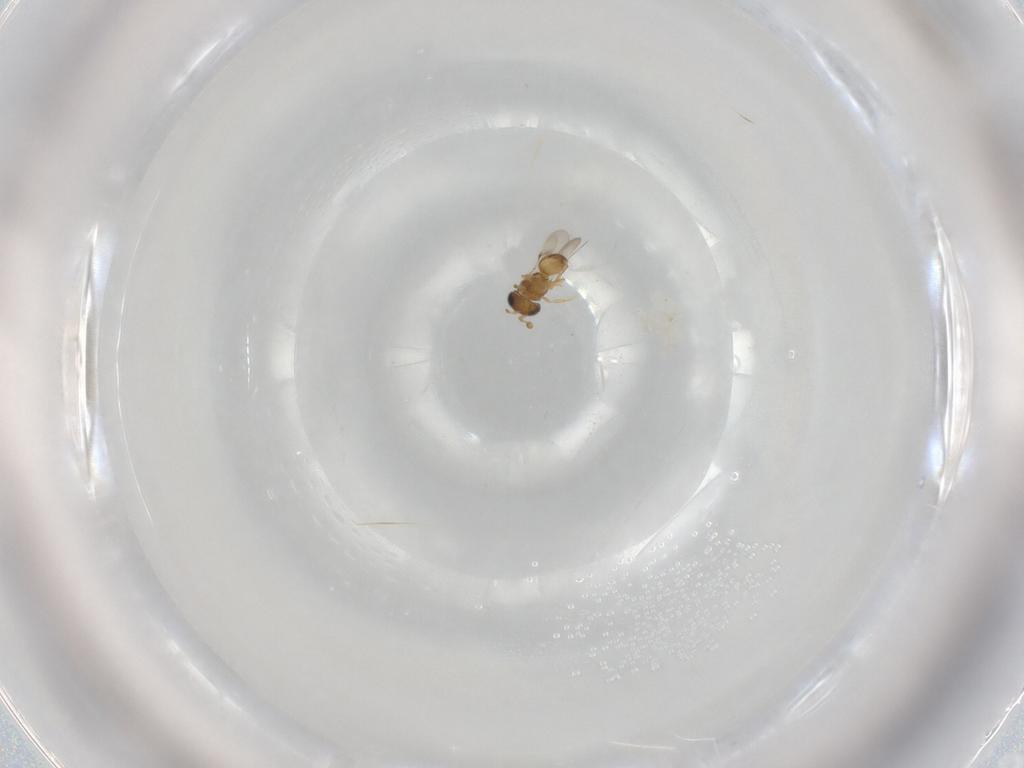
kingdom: Animalia
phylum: Arthropoda
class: Insecta
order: Hymenoptera
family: Scelionidae
